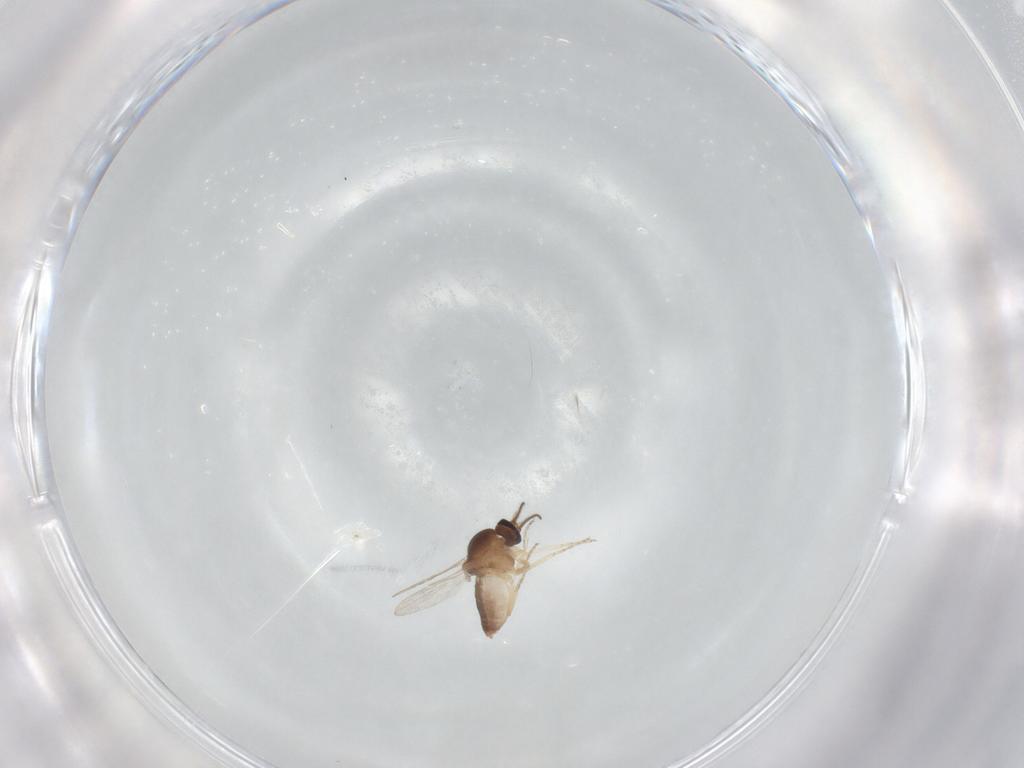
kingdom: Animalia
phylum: Arthropoda
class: Insecta
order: Diptera
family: Ceratopogonidae
